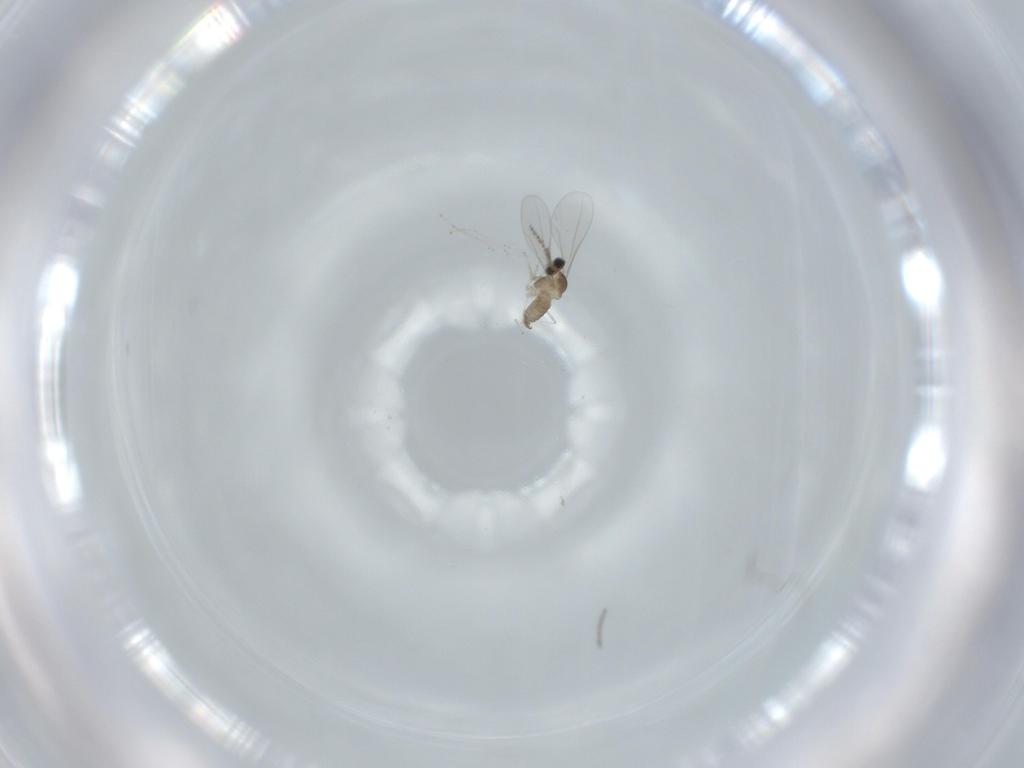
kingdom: Animalia
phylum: Arthropoda
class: Insecta
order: Diptera
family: Cecidomyiidae
